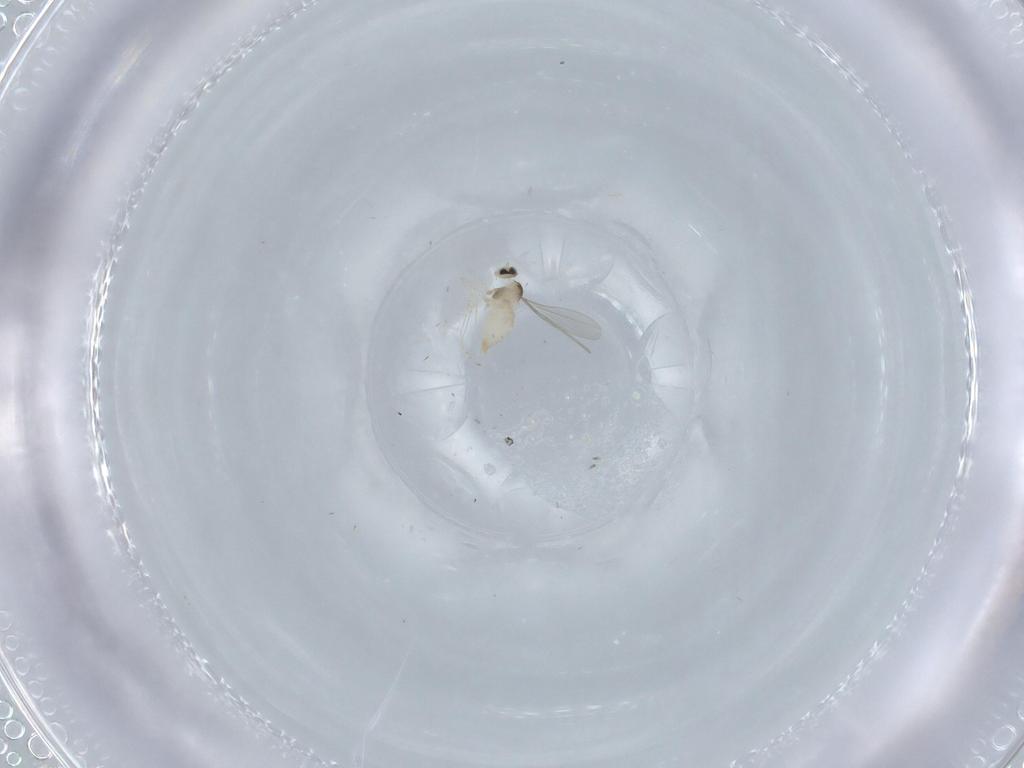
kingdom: Animalia
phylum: Arthropoda
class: Insecta
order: Diptera
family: Cecidomyiidae
